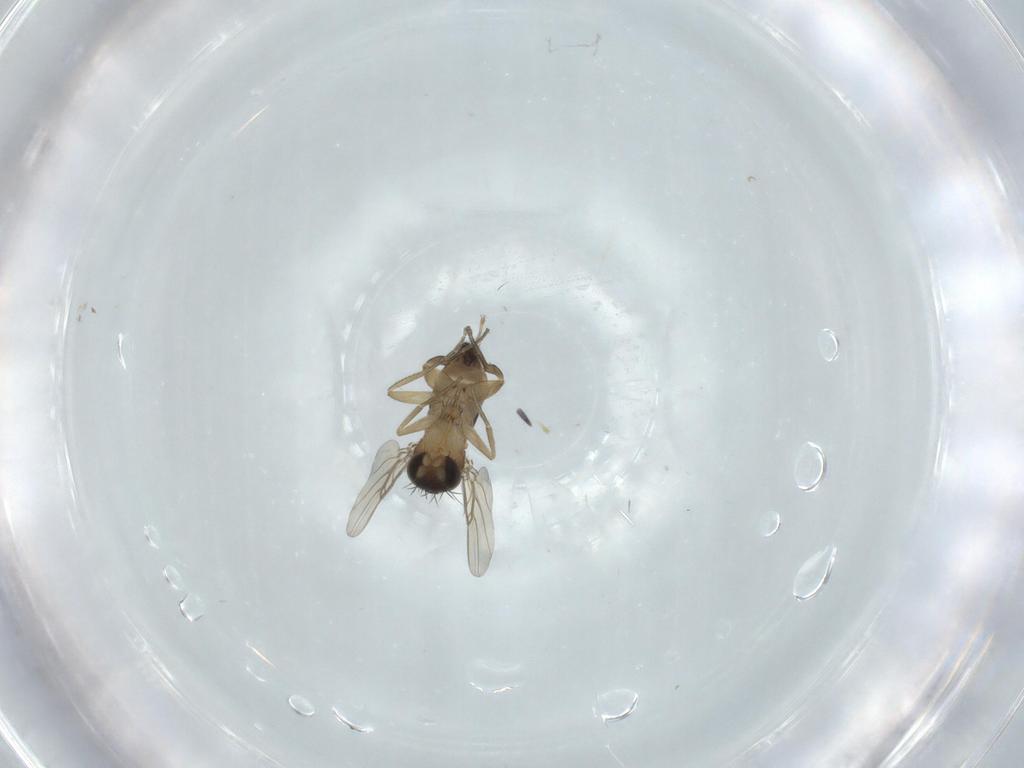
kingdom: Animalia
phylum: Arthropoda
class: Insecta
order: Diptera
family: Phoridae
